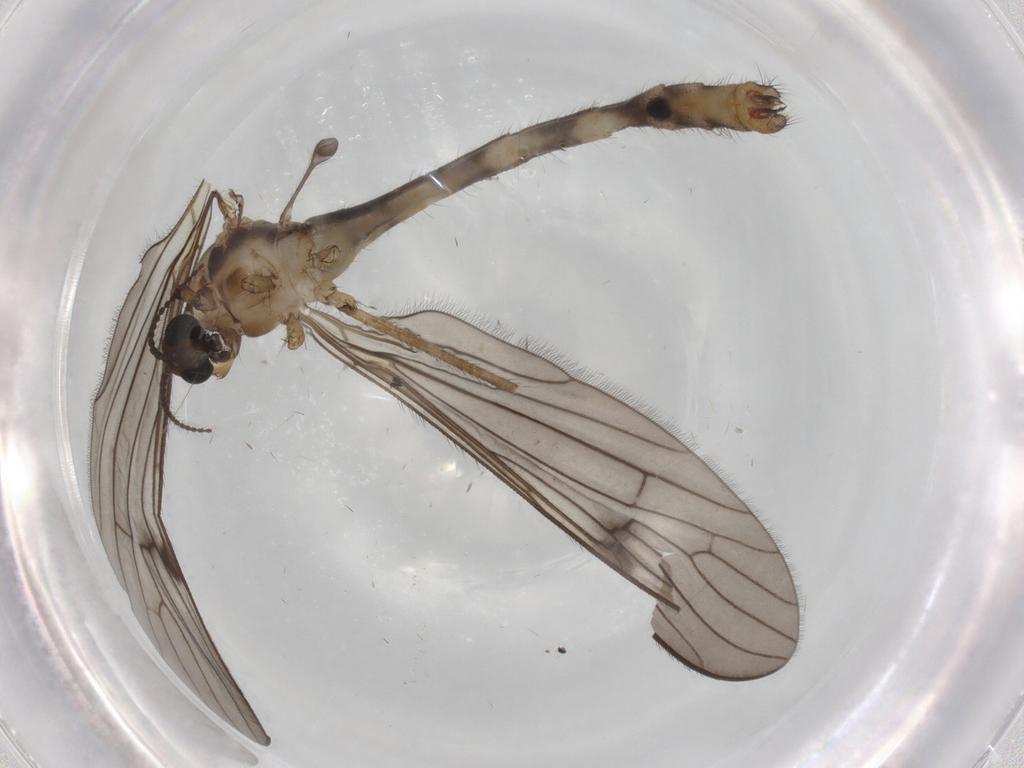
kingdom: Animalia
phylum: Arthropoda
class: Insecta
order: Diptera
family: Limoniidae
